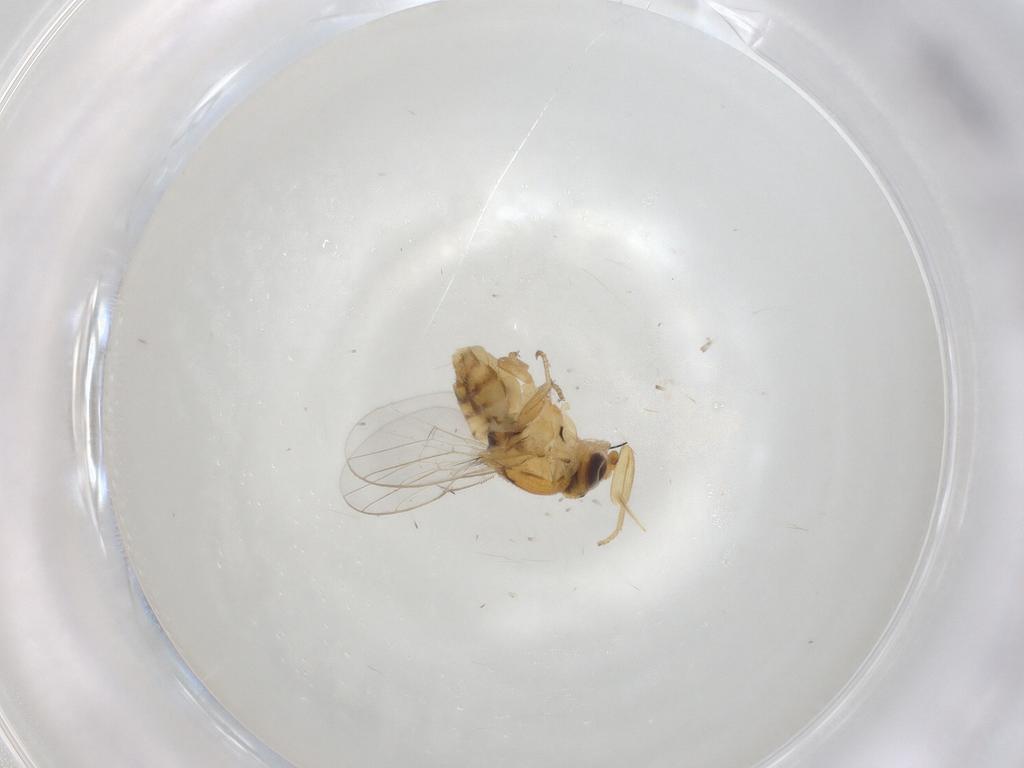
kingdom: Animalia
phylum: Arthropoda
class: Insecta
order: Diptera
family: Chloropidae
